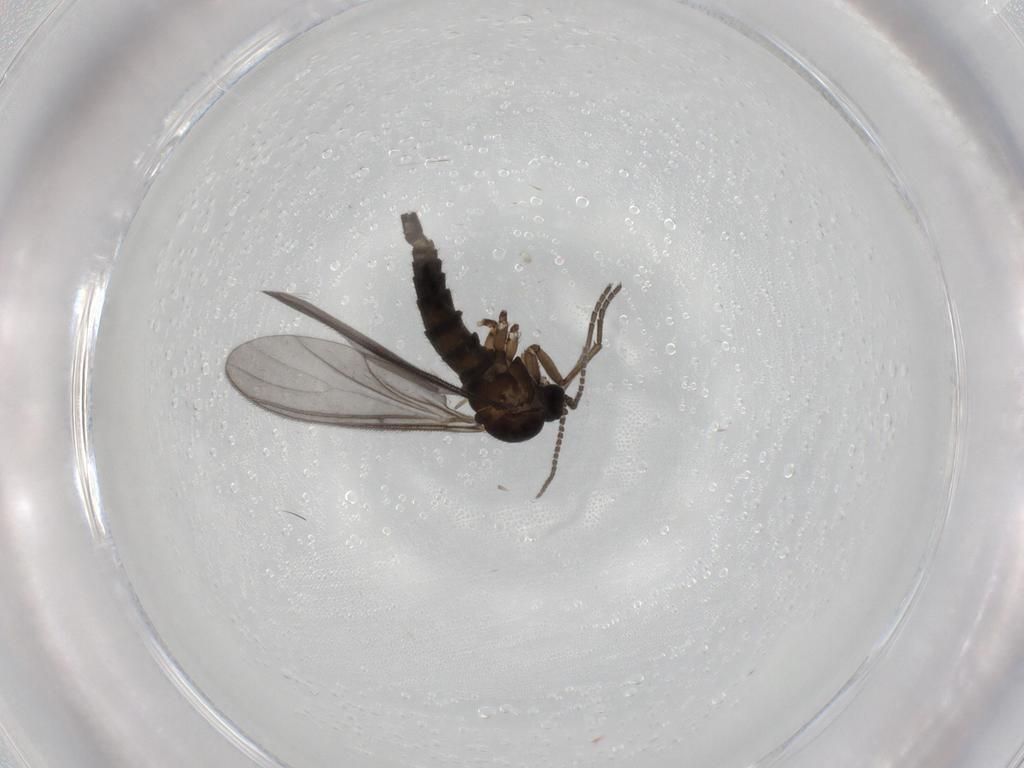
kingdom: Animalia
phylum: Arthropoda
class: Insecta
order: Diptera
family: Sciaridae
